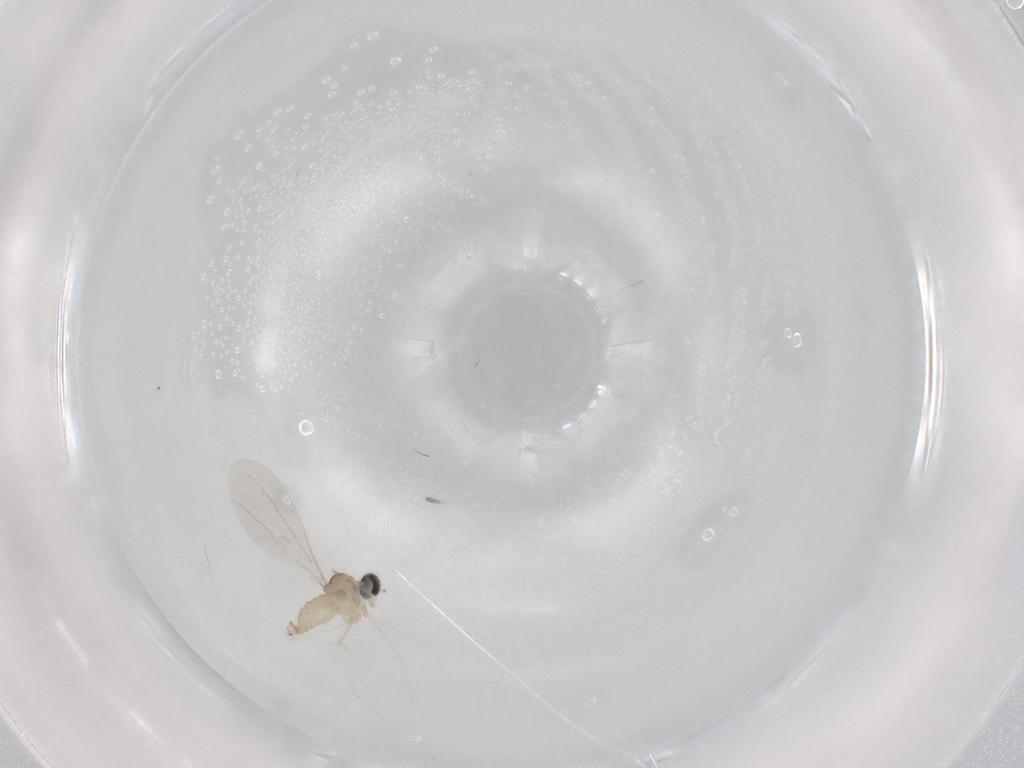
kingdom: Animalia
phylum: Arthropoda
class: Insecta
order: Diptera
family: Cecidomyiidae
